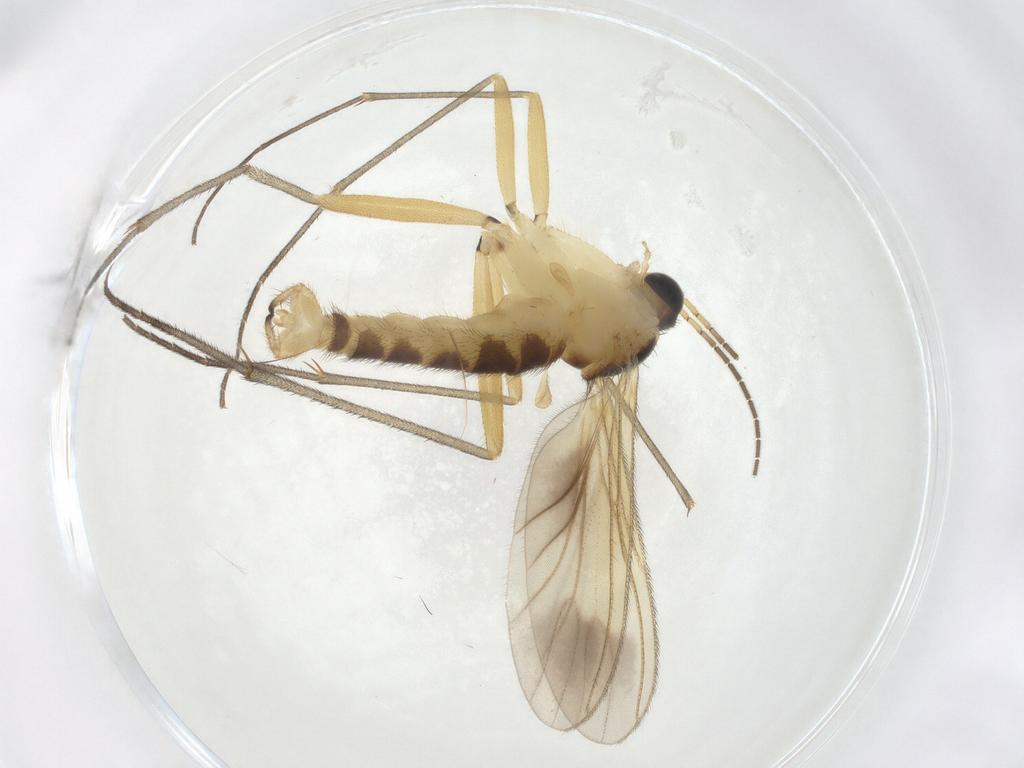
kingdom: Animalia
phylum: Arthropoda
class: Insecta
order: Diptera
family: Sciaridae
